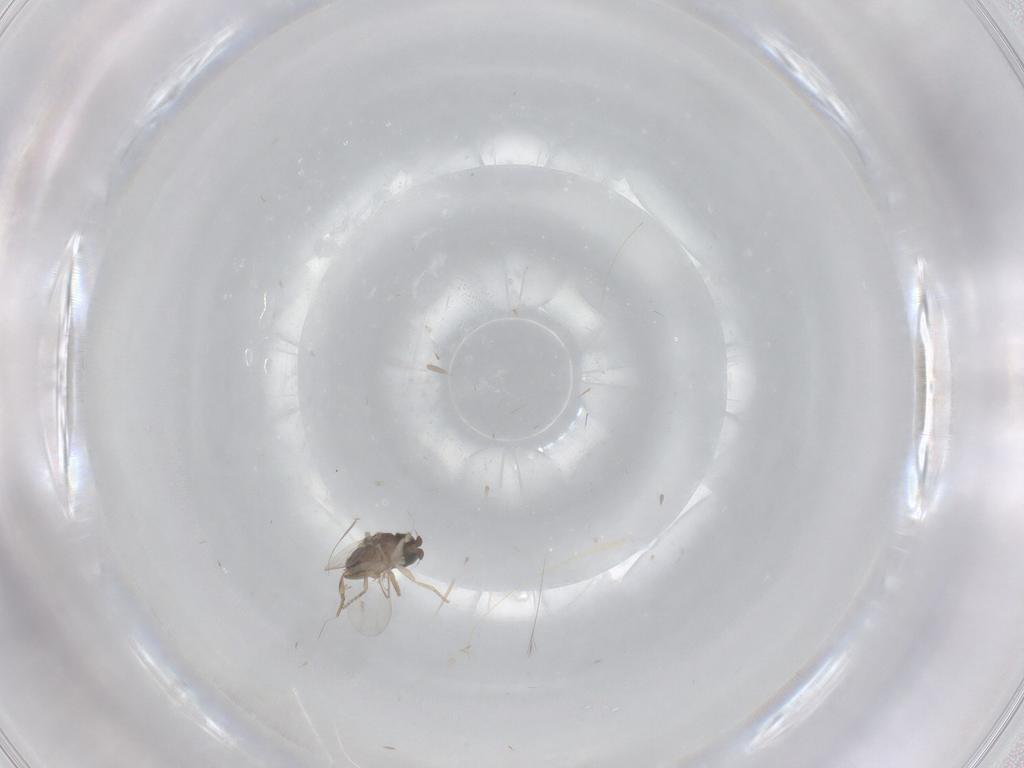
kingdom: Animalia
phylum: Arthropoda
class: Insecta
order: Diptera
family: Phoridae
